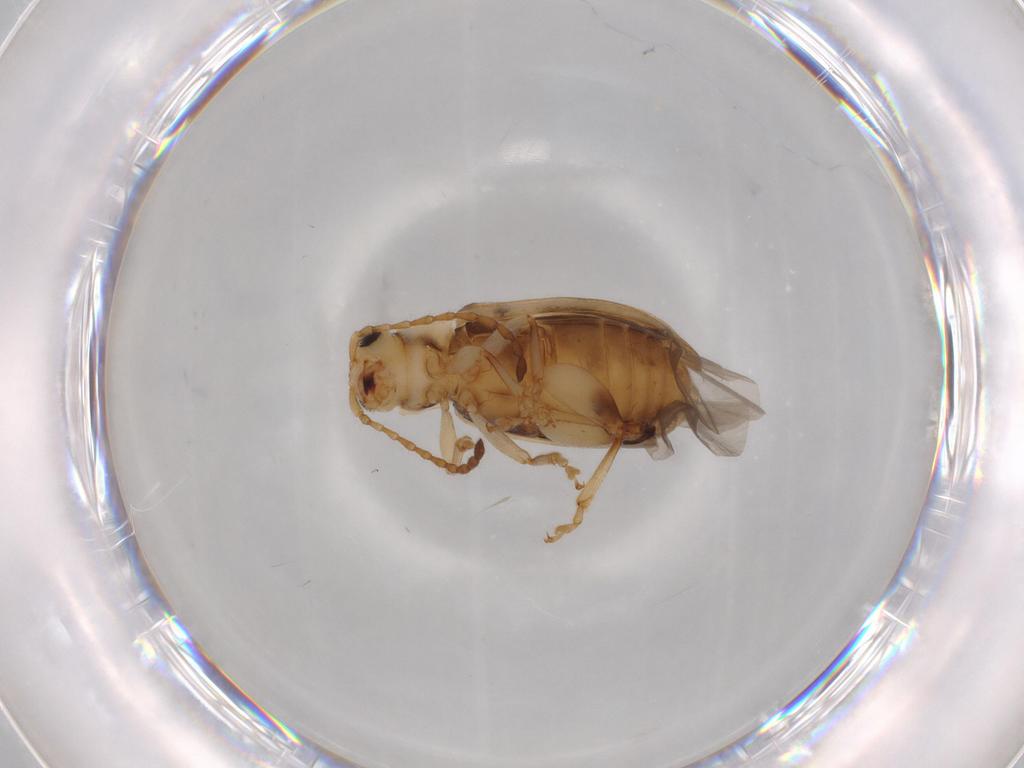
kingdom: Animalia
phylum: Arthropoda
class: Insecta
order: Coleoptera
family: Chrysomelidae
